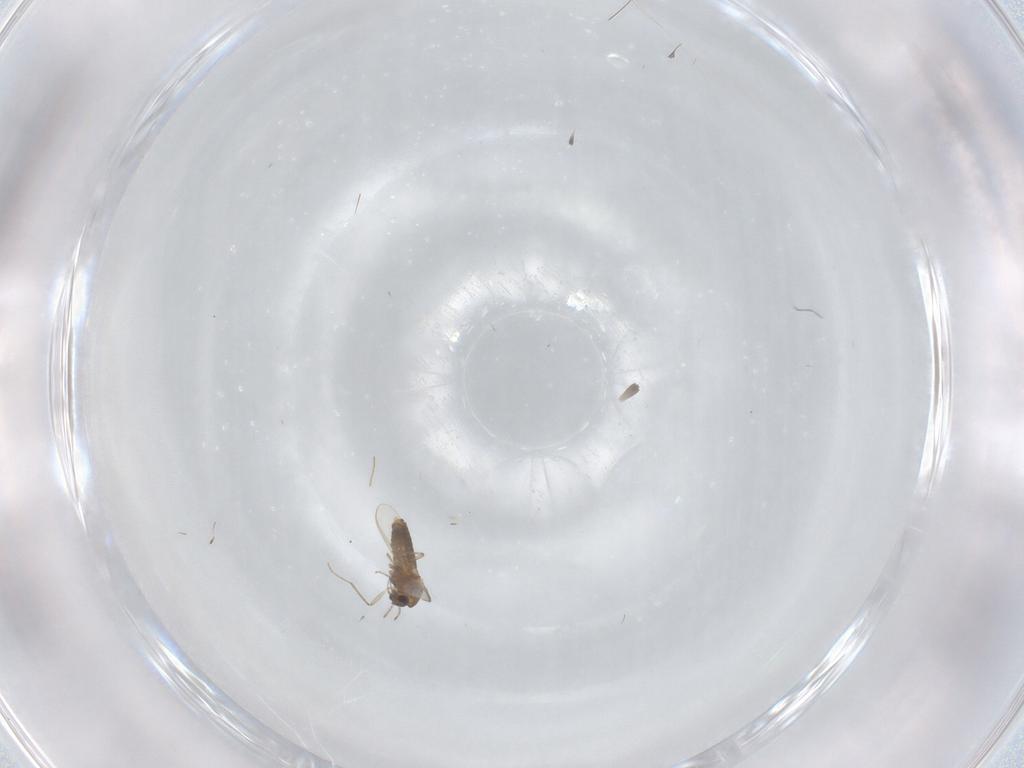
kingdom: Animalia
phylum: Arthropoda
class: Insecta
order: Diptera
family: Chironomidae
